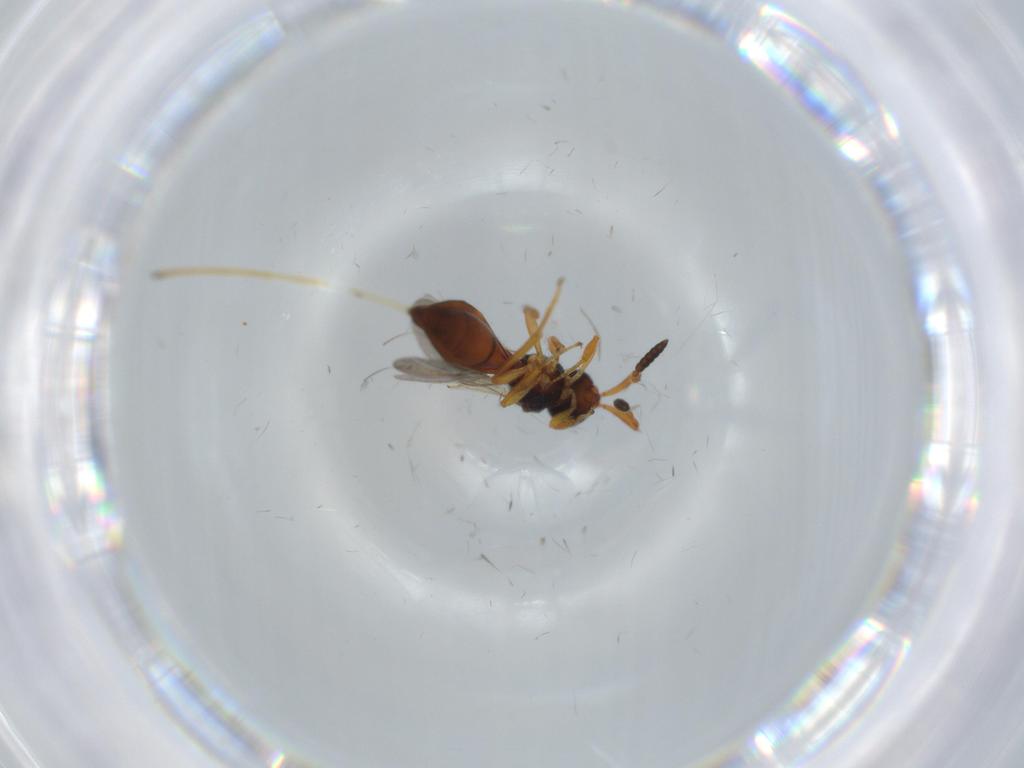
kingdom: Animalia
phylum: Arthropoda
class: Insecta
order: Hymenoptera
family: Scelionidae
